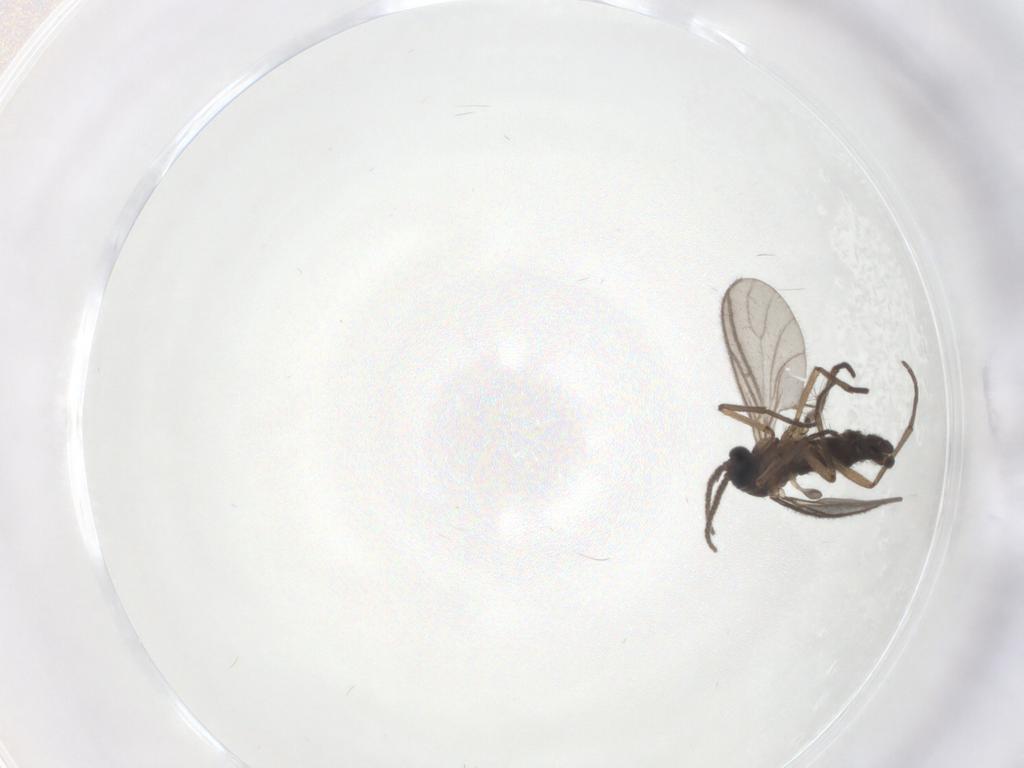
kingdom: Animalia
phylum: Arthropoda
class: Insecta
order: Diptera
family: Sciaridae
